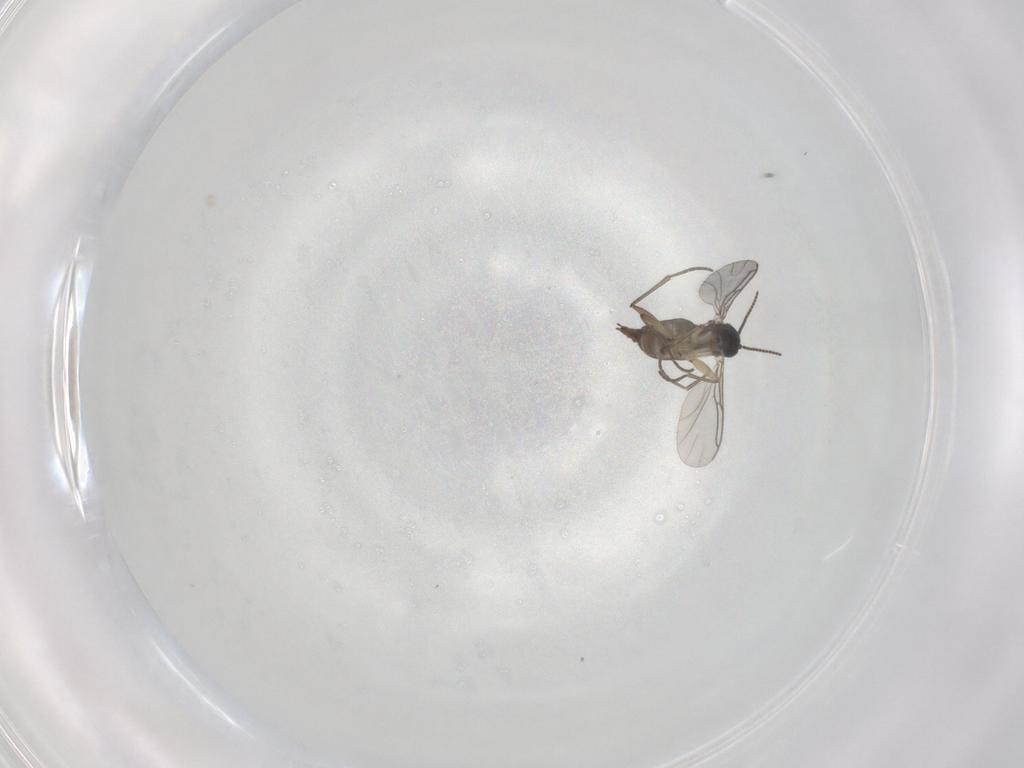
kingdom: Animalia
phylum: Arthropoda
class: Insecta
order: Diptera
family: Sciaridae
